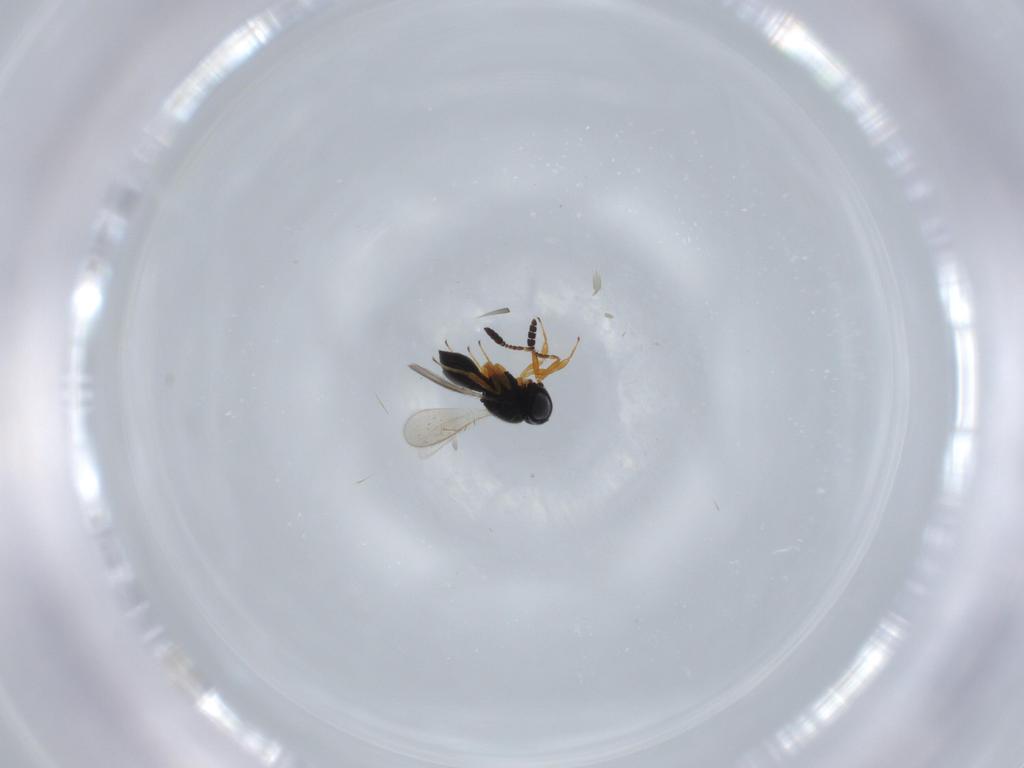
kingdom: Animalia
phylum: Arthropoda
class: Insecta
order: Hymenoptera
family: Scelionidae
